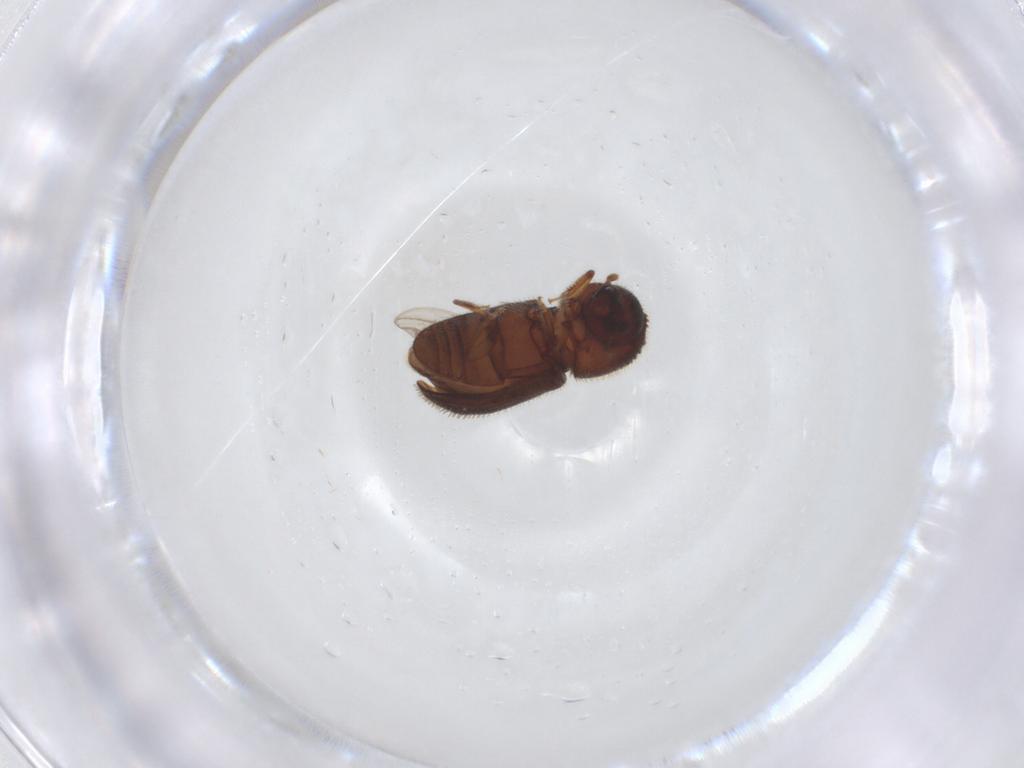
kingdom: Animalia
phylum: Arthropoda
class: Insecta
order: Coleoptera
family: Curculionidae
